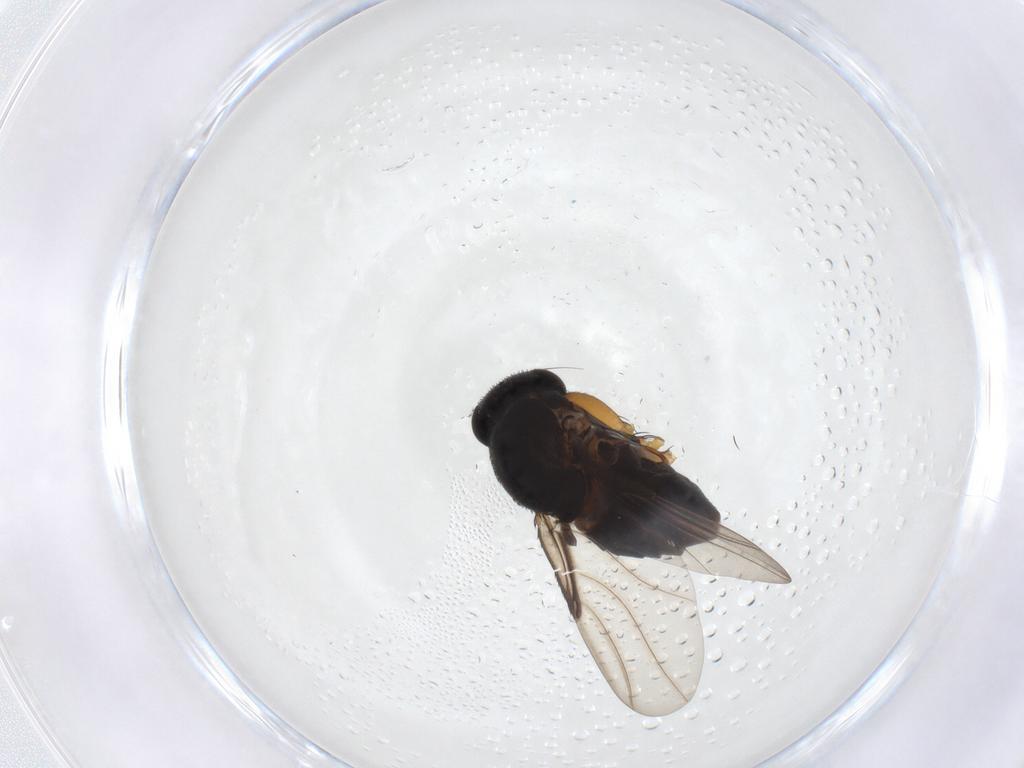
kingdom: Animalia
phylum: Arthropoda
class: Insecta
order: Diptera
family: Phoridae
